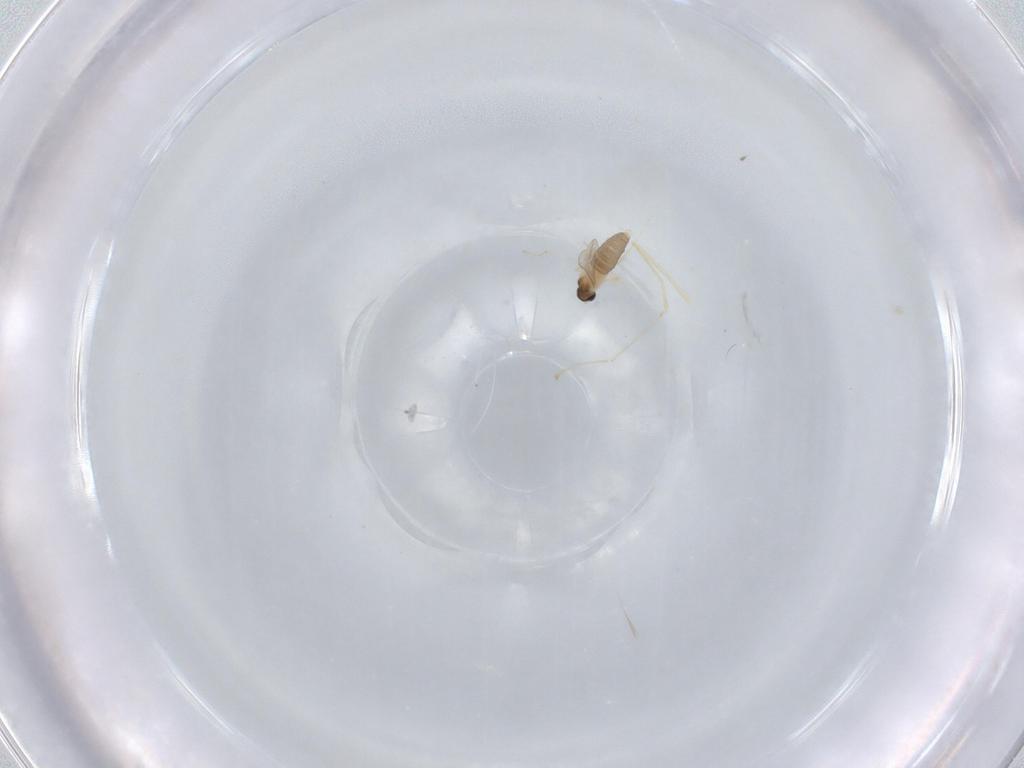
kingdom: Animalia
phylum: Arthropoda
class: Insecta
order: Diptera
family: Cecidomyiidae
